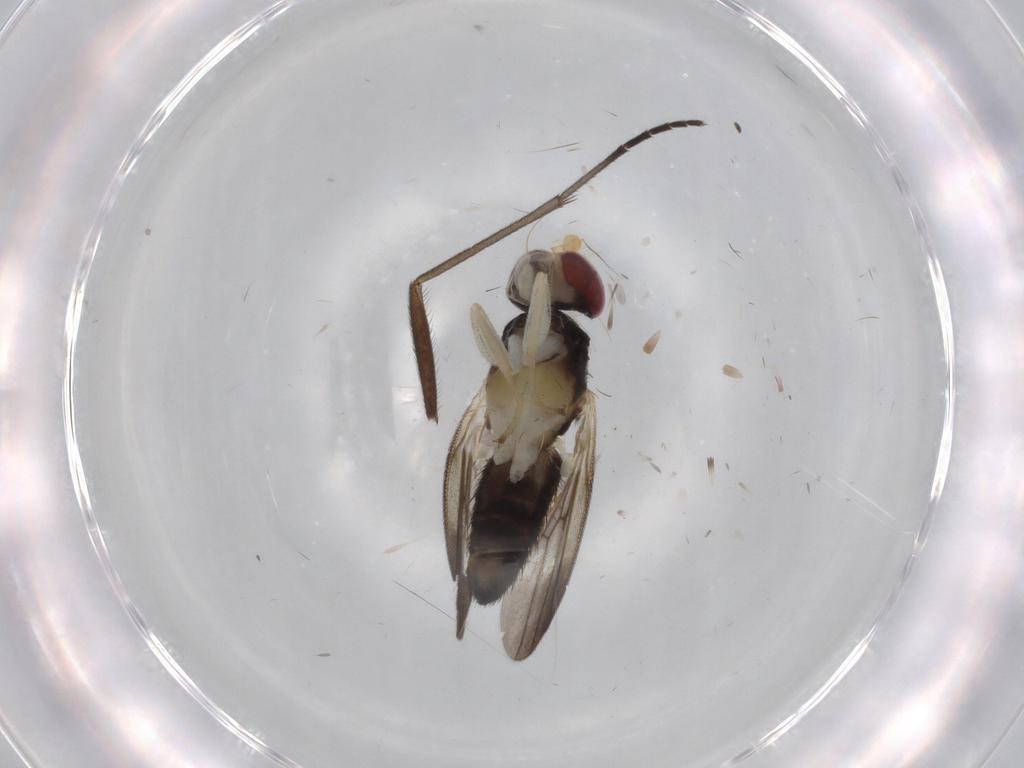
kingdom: Animalia
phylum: Arthropoda
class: Insecta
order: Diptera
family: Clusiidae
